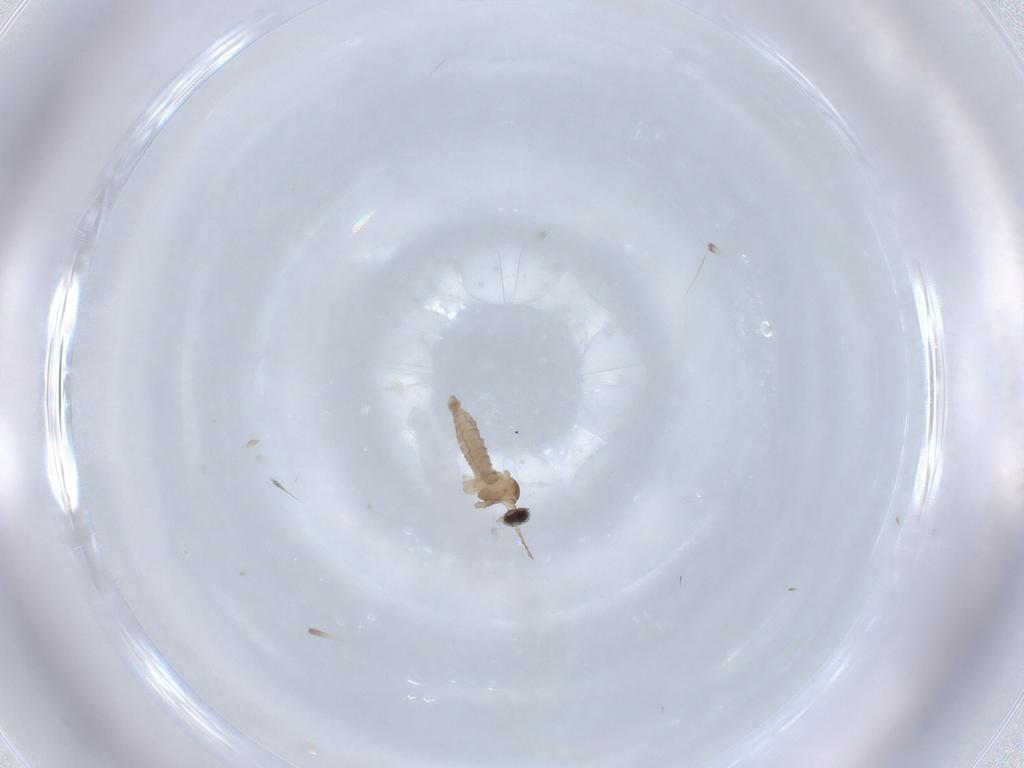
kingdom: Animalia
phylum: Arthropoda
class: Insecta
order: Diptera
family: Cecidomyiidae
